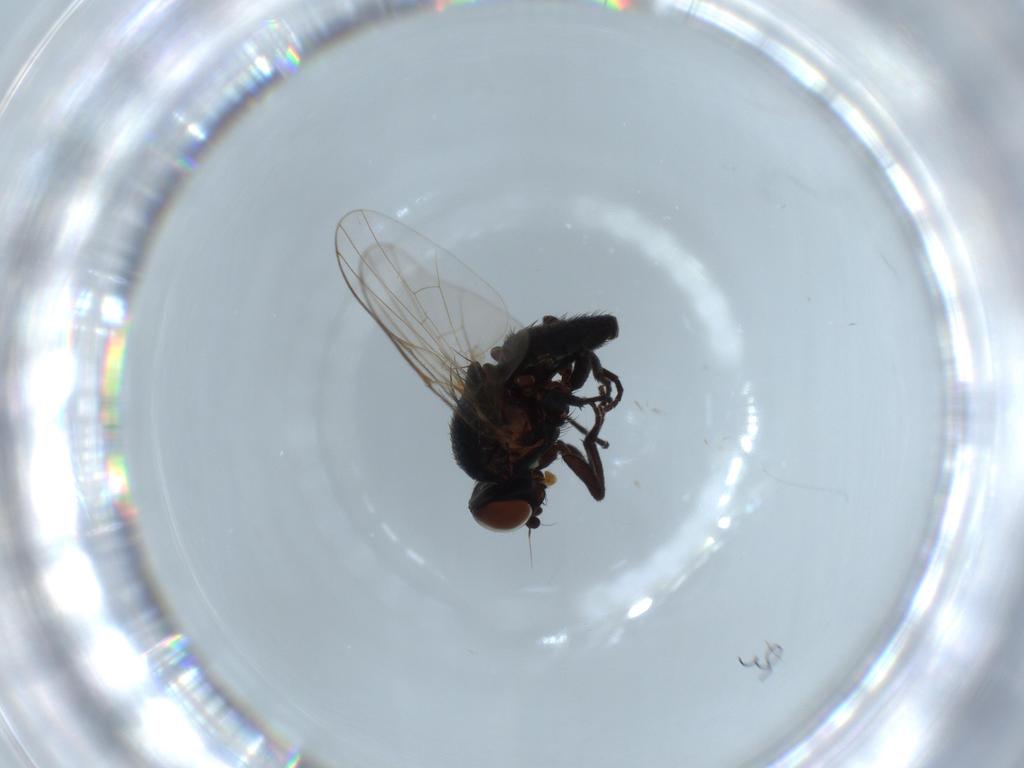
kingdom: Animalia
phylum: Arthropoda
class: Insecta
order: Diptera
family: Agromyzidae
